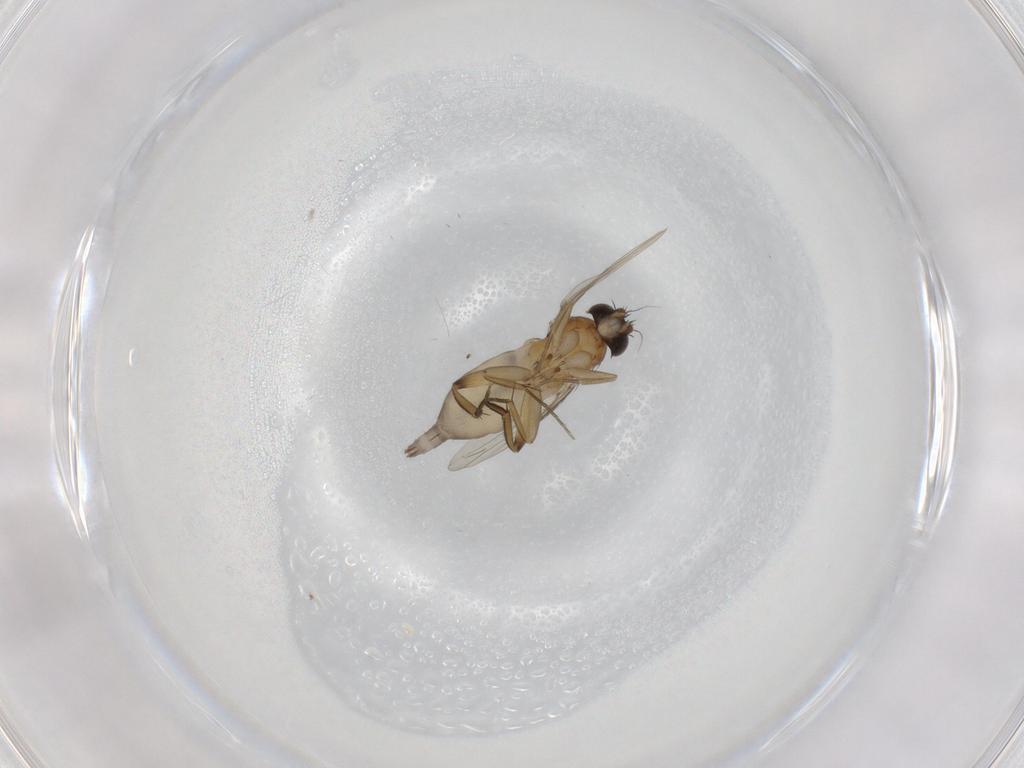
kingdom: Animalia
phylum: Arthropoda
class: Insecta
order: Diptera
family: Phoridae
